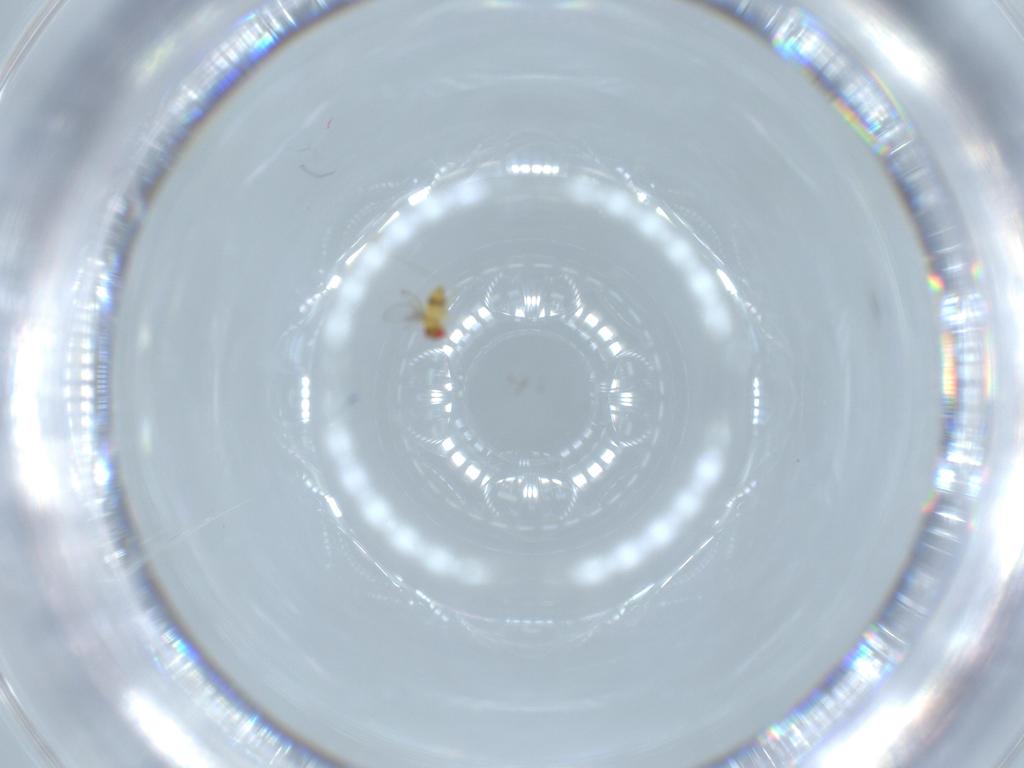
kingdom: Animalia
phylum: Arthropoda
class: Insecta
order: Hymenoptera
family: Trichogrammatidae
